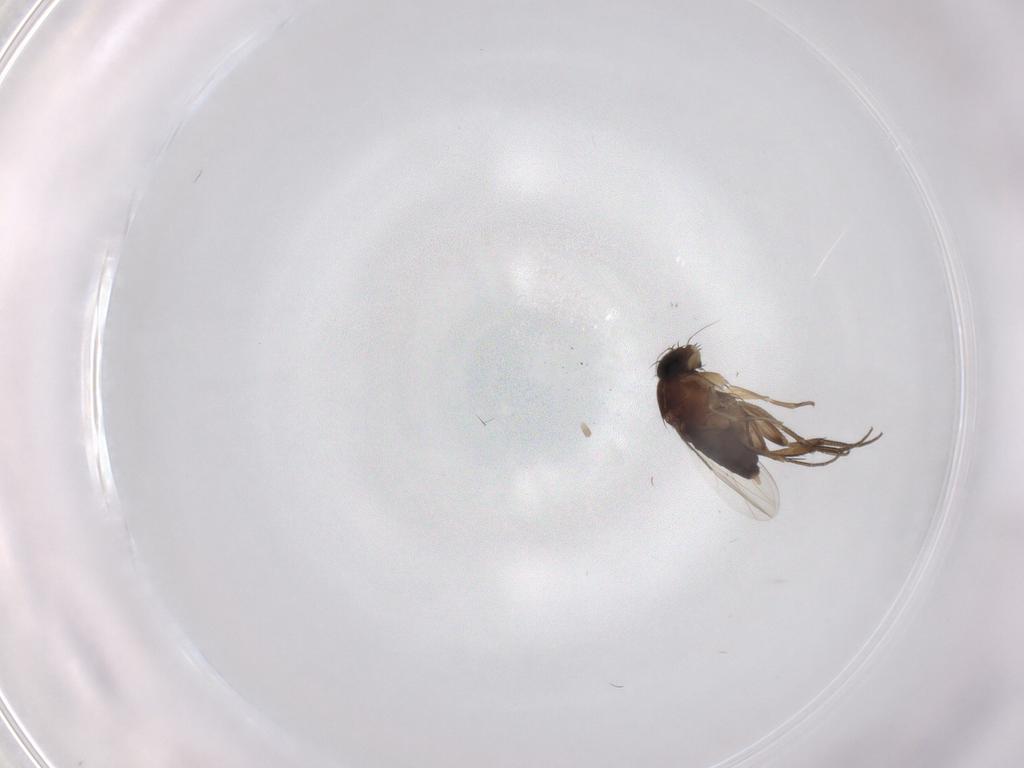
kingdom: Animalia
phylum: Arthropoda
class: Insecta
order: Diptera
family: Phoridae
